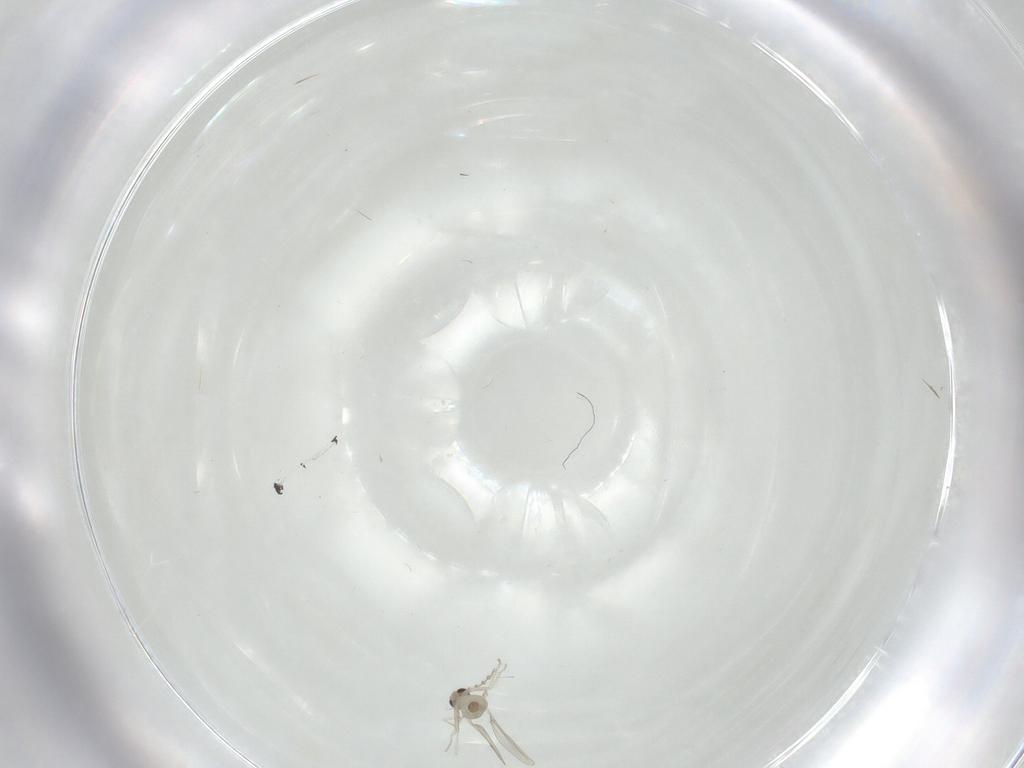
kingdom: Animalia
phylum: Arthropoda
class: Insecta
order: Diptera
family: Cecidomyiidae
